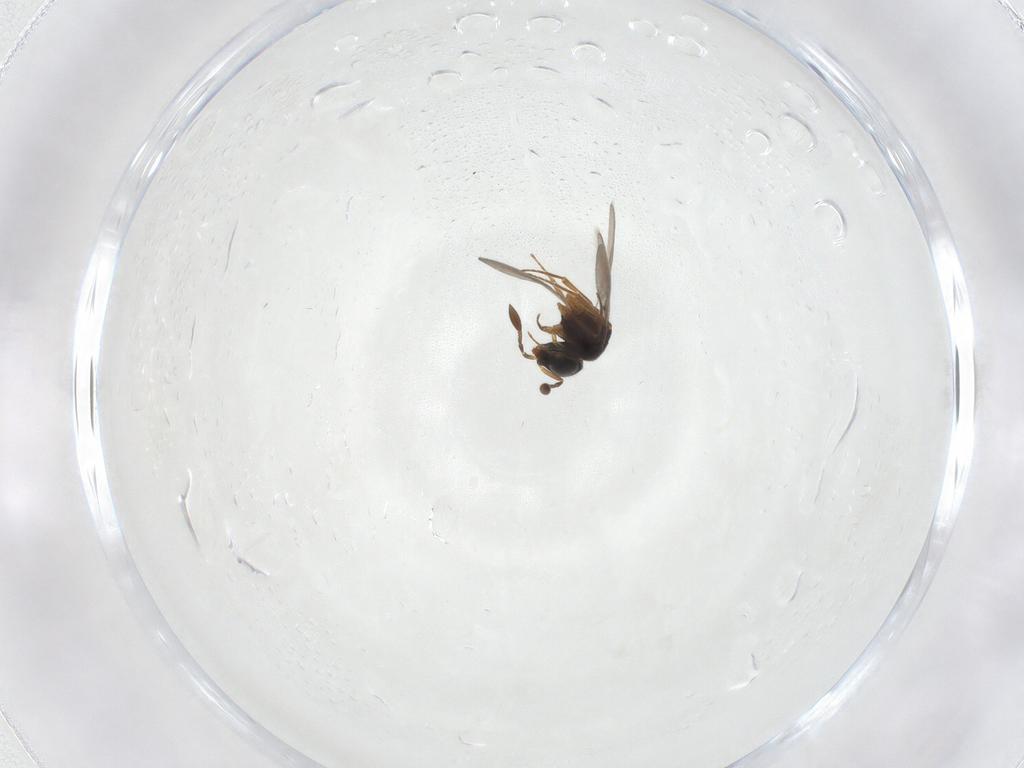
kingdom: Animalia
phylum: Arthropoda
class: Insecta
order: Hymenoptera
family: Scelionidae
